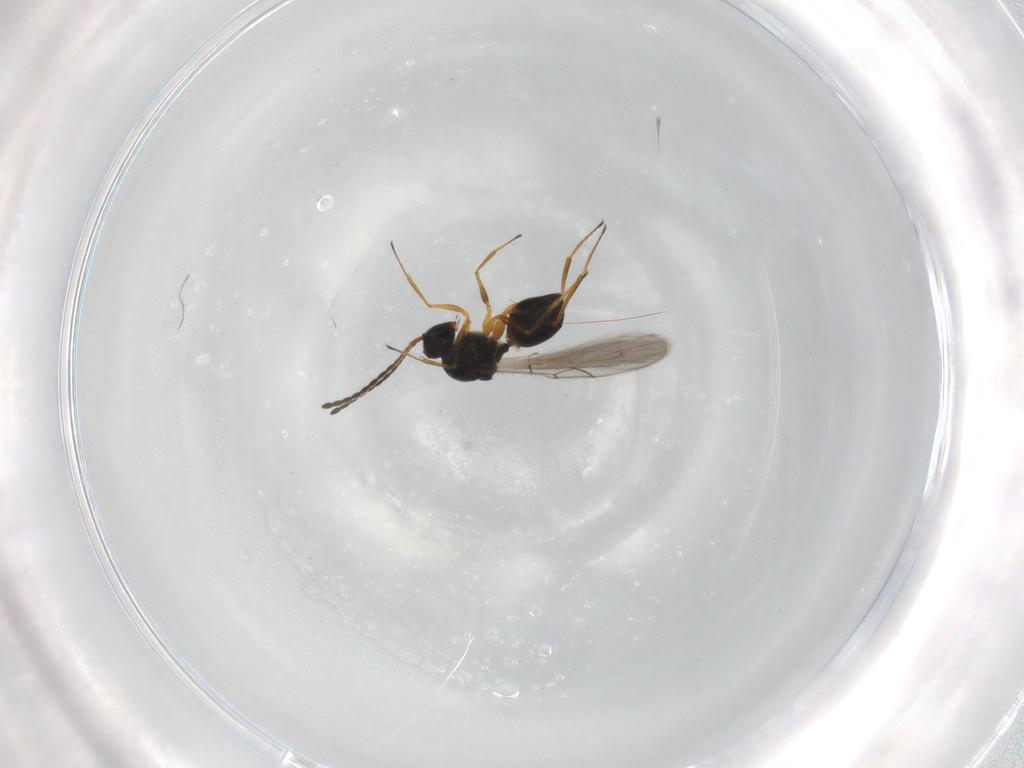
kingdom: Animalia
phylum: Arthropoda
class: Insecta
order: Hymenoptera
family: Figitidae
